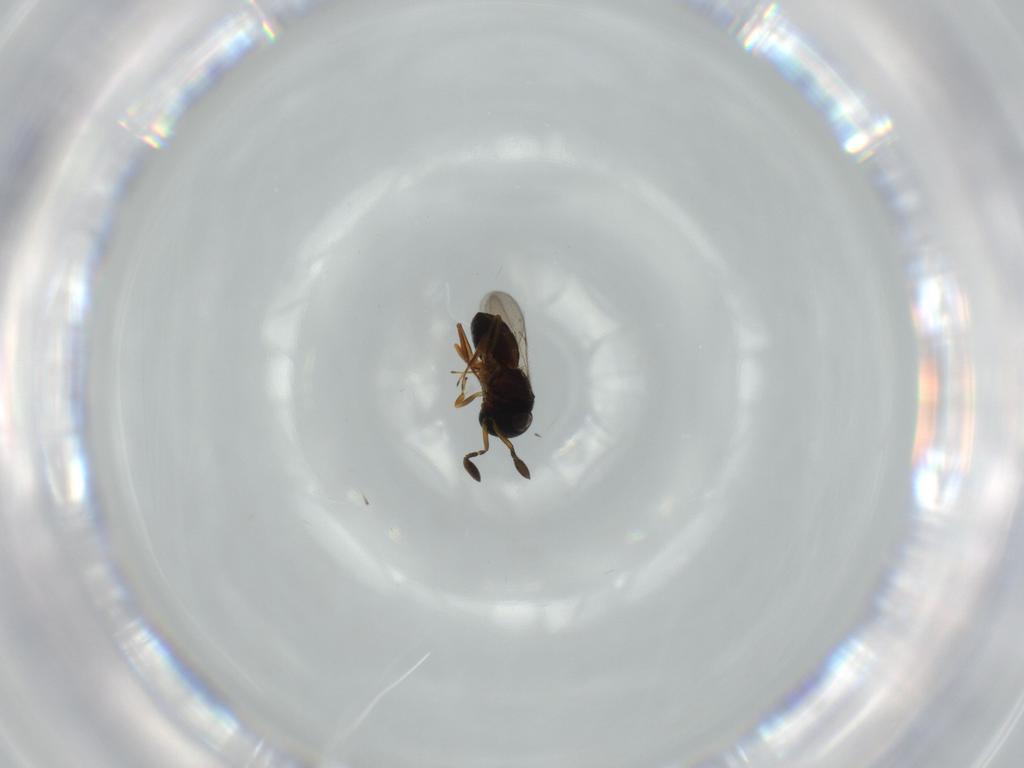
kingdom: Animalia
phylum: Arthropoda
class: Insecta
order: Coleoptera
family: Curculionidae
